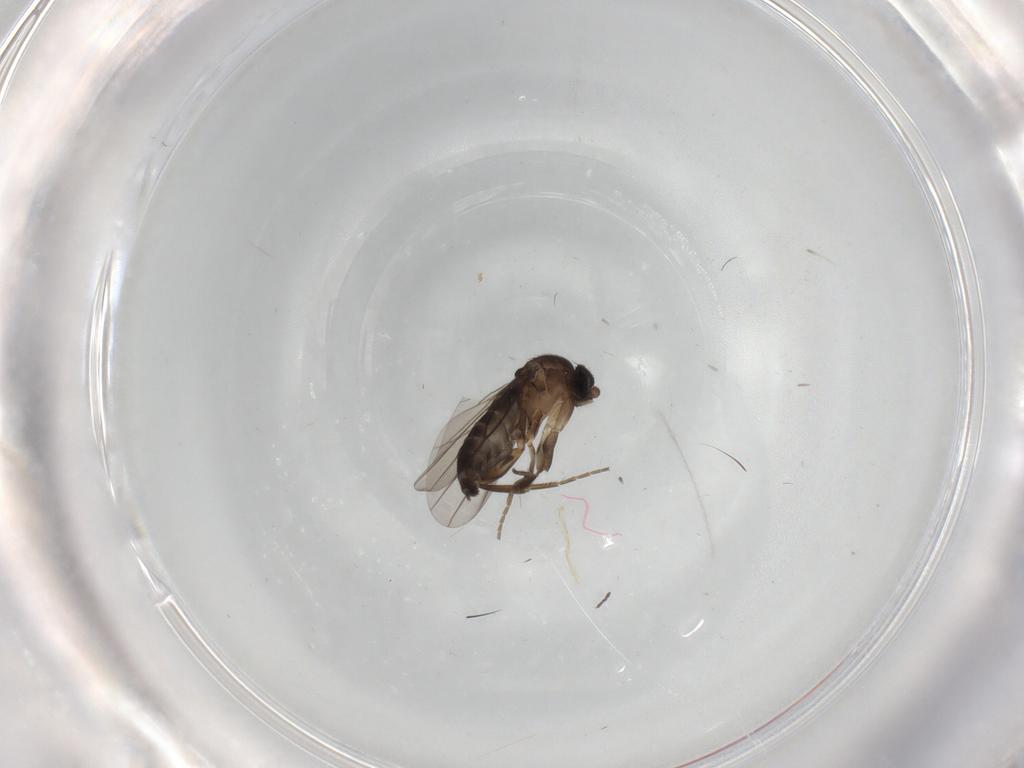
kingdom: Animalia
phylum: Arthropoda
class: Insecta
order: Diptera
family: Phoridae
